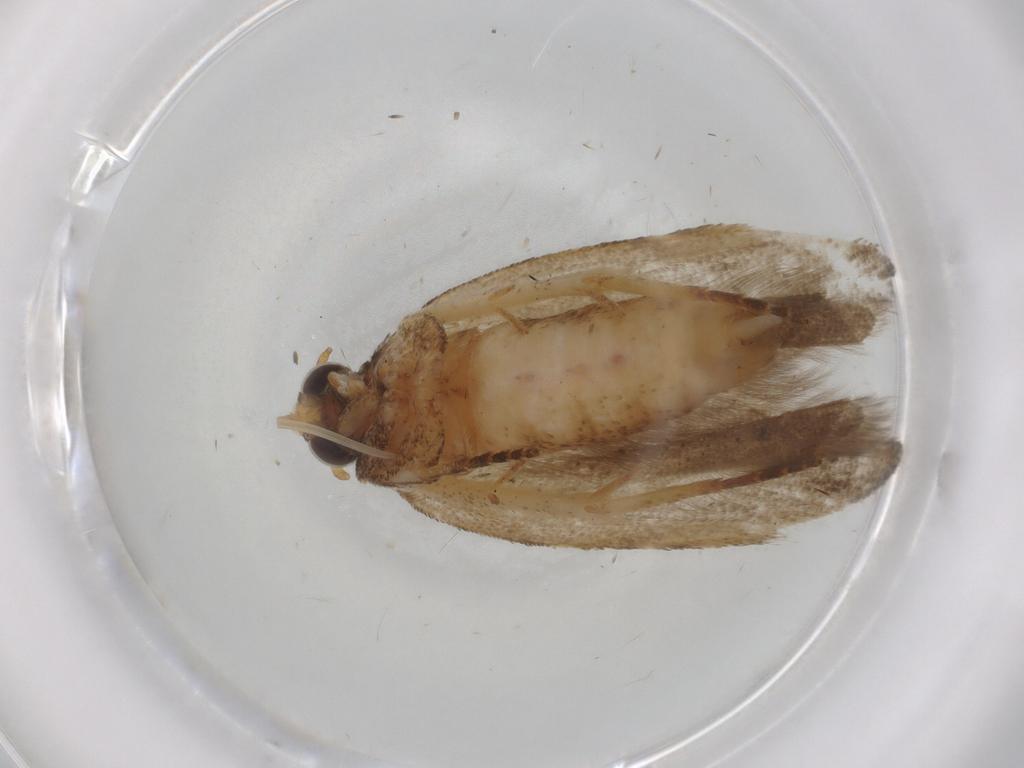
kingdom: Animalia
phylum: Arthropoda
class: Insecta
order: Lepidoptera
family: Gelechiidae
